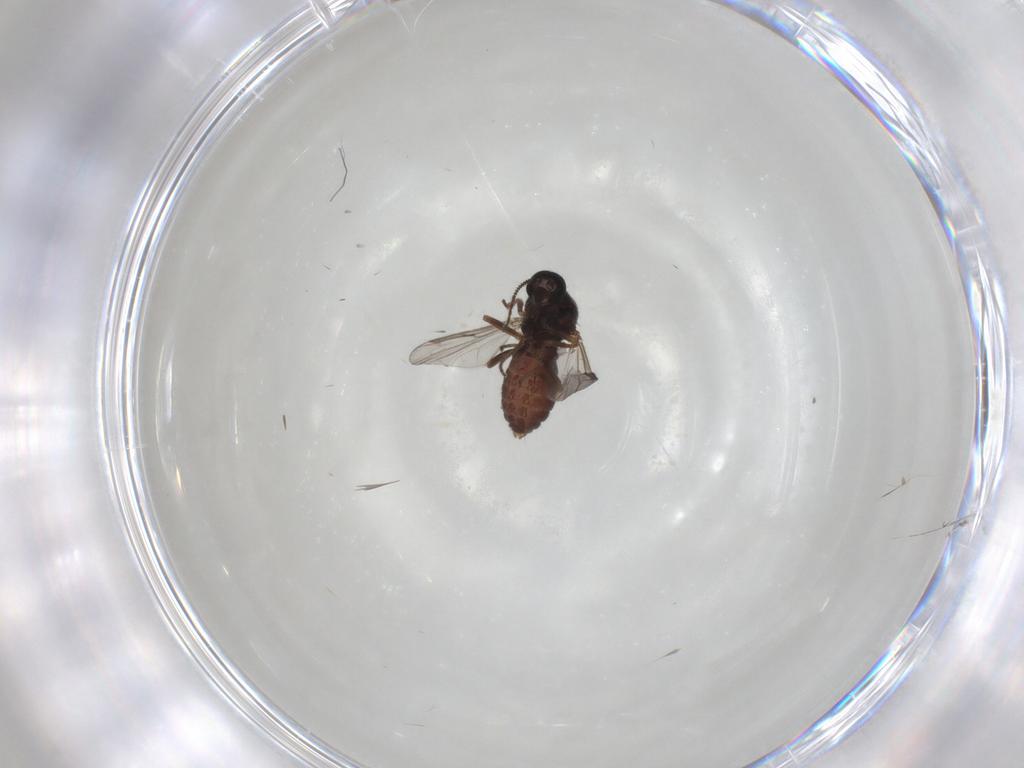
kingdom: Animalia
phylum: Arthropoda
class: Insecta
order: Diptera
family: Ceratopogonidae
